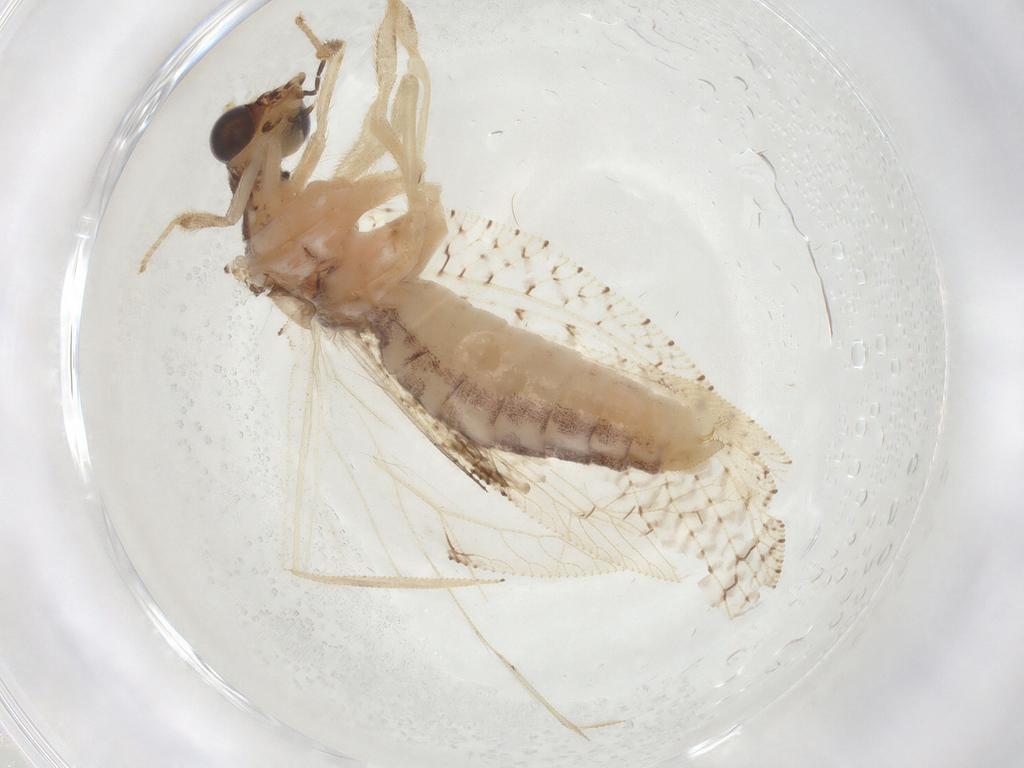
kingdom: Animalia
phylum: Arthropoda
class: Insecta
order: Neuroptera
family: Hemerobiidae
